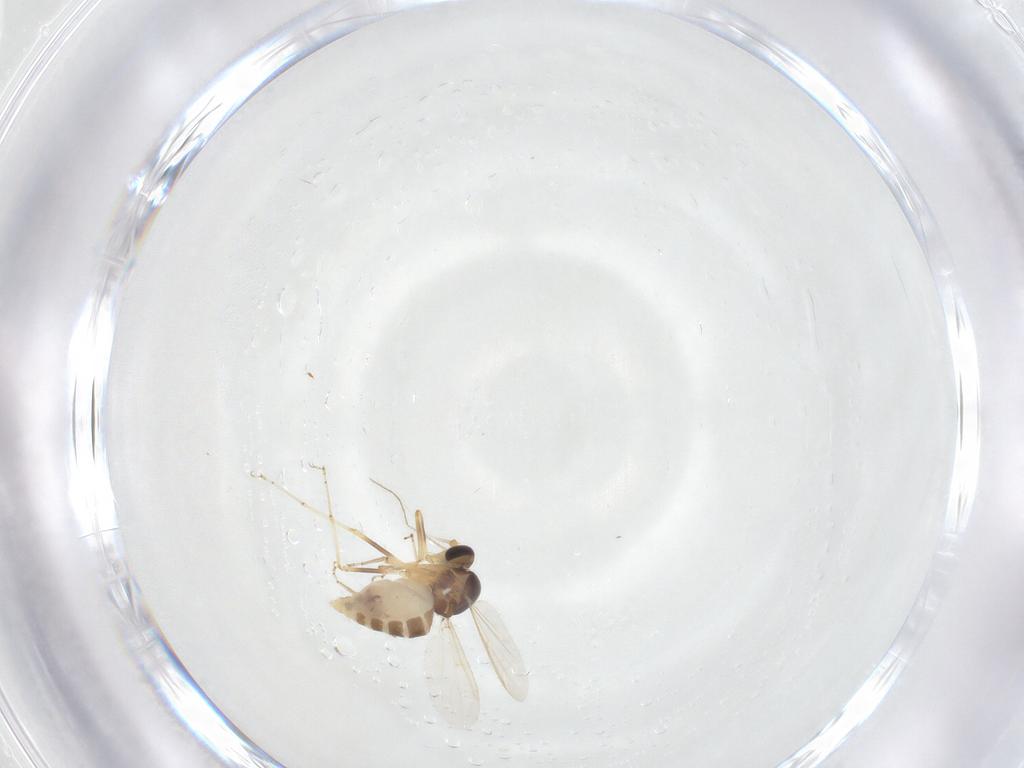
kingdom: Animalia
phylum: Arthropoda
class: Insecta
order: Diptera
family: Ceratopogonidae
